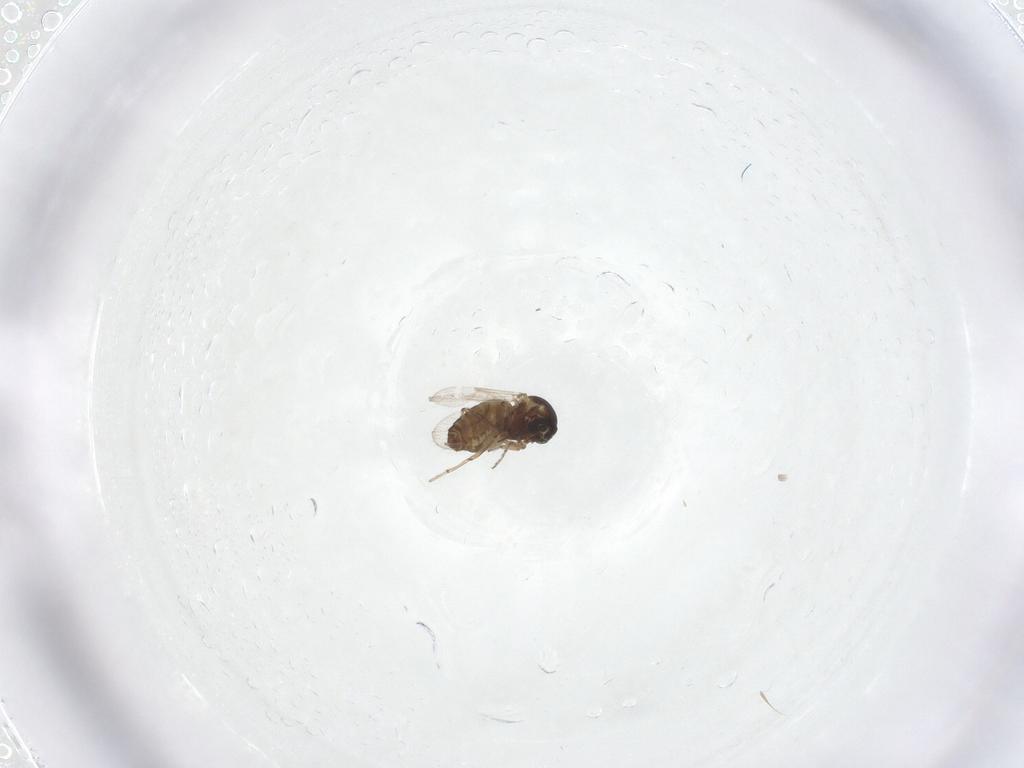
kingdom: Animalia
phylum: Arthropoda
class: Insecta
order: Diptera
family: Ceratopogonidae
